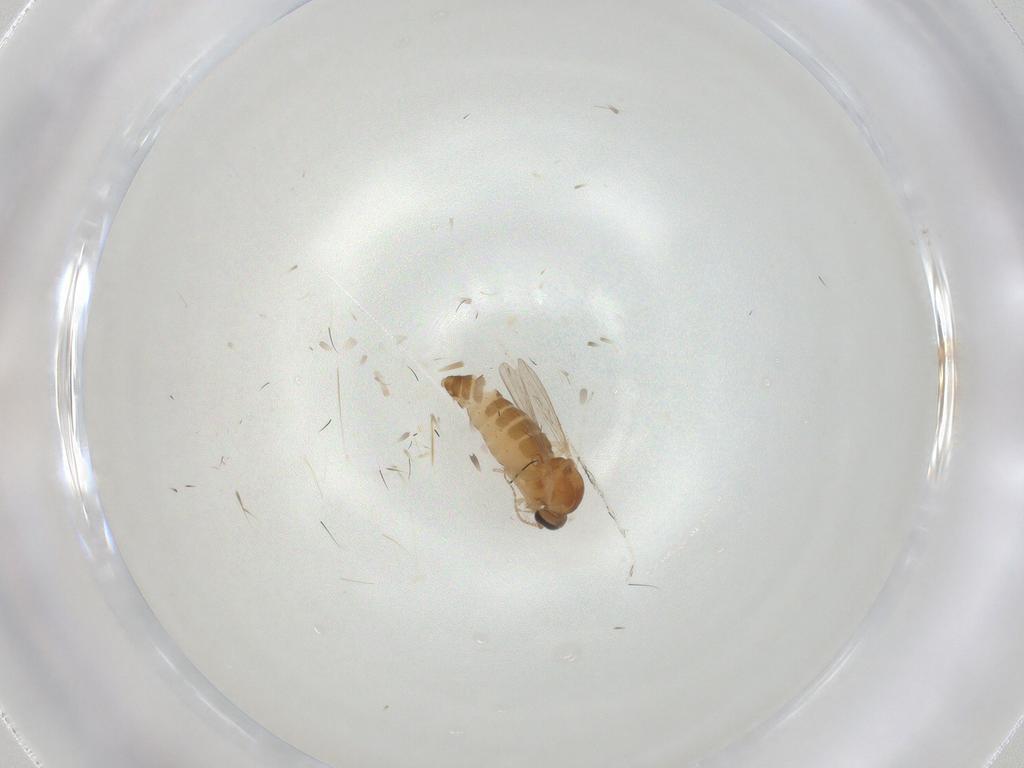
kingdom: Animalia
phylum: Arthropoda
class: Insecta
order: Diptera
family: Ceratopogonidae
